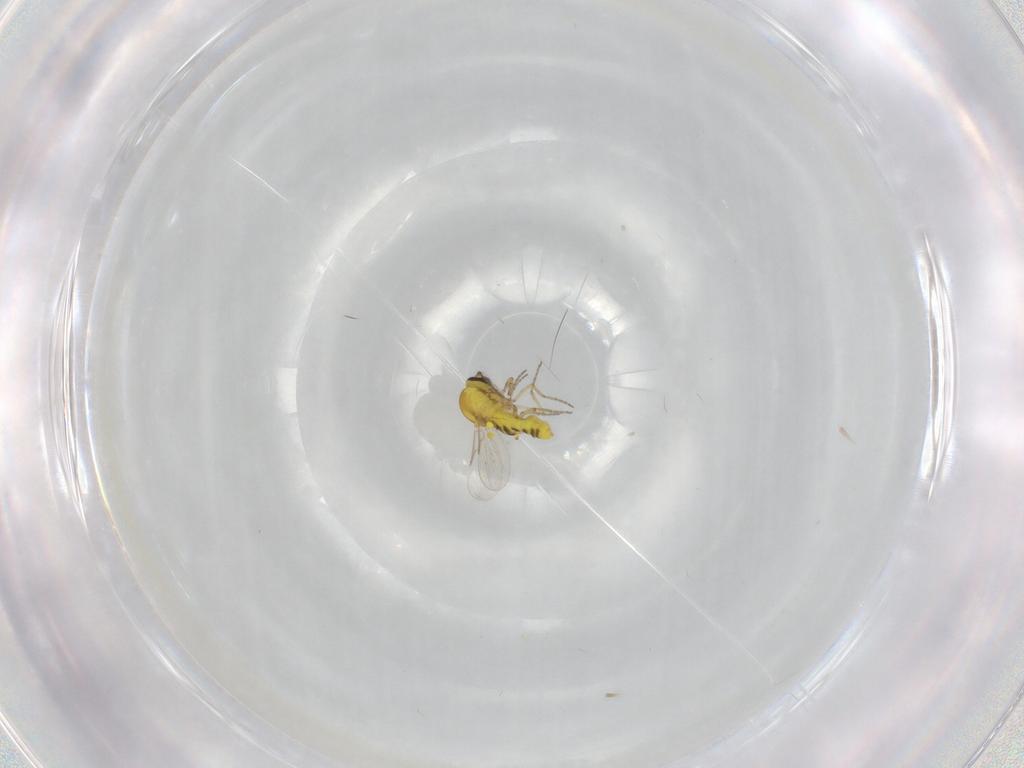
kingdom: Animalia
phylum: Arthropoda
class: Insecta
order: Diptera
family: Ceratopogonidae
